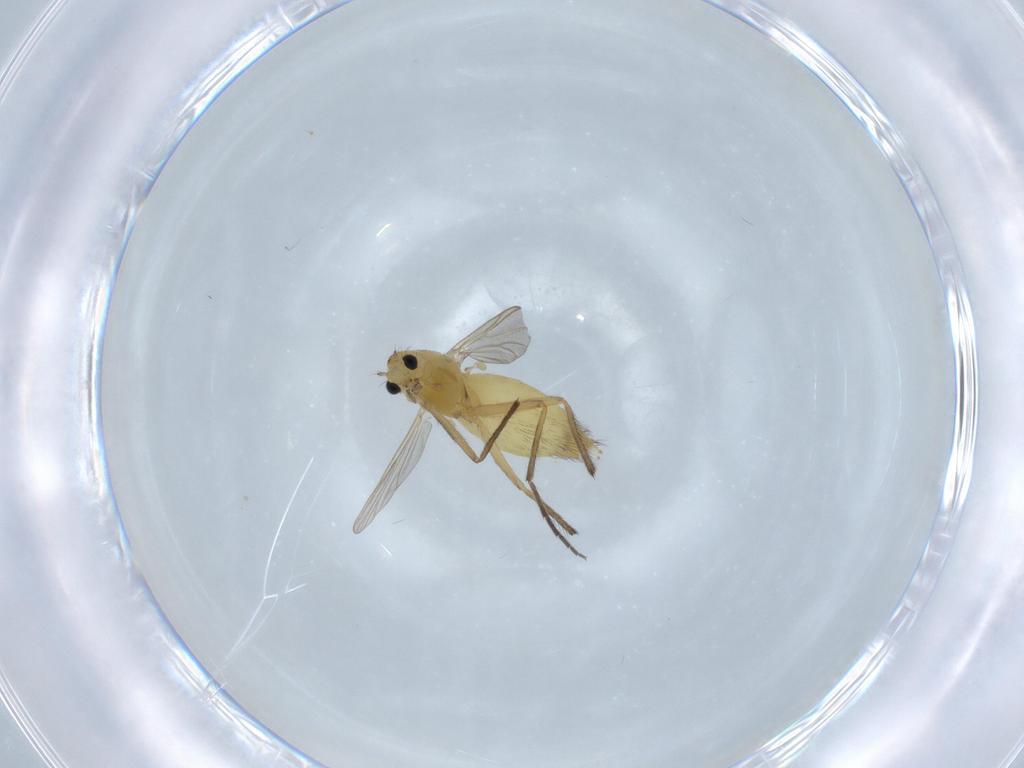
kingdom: Animalia
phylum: Arthropoda
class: Insecta
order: Diptera
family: Chironomidae
